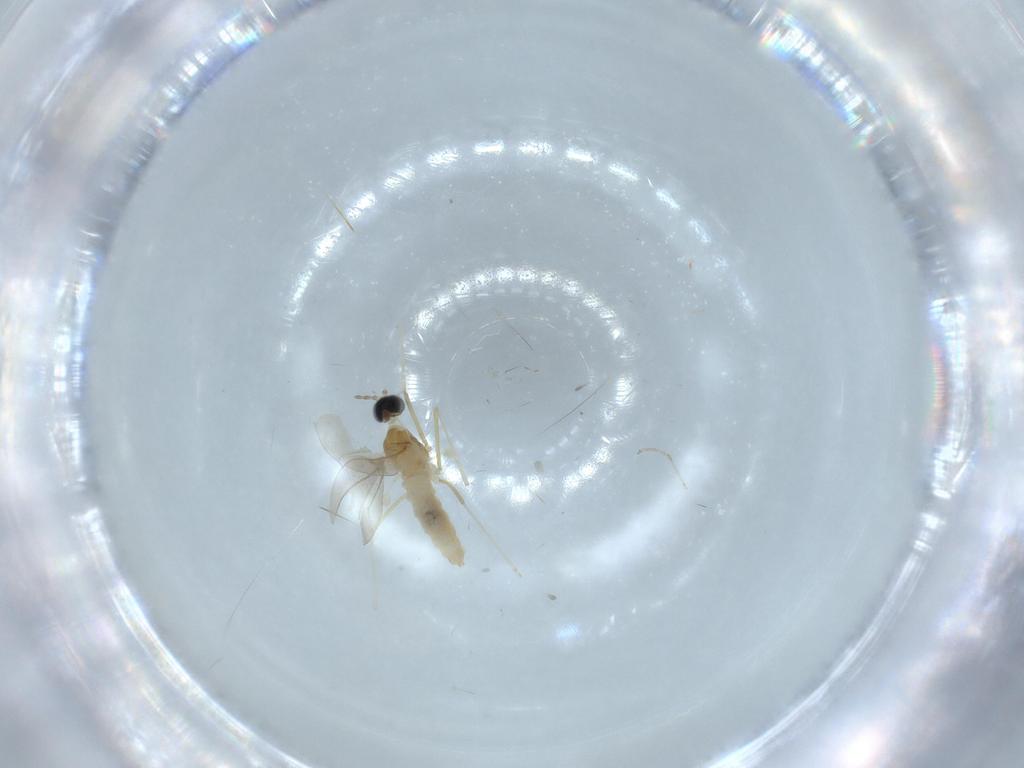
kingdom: Animalia
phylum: Arthropoda
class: Insecta
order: Diptera
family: Cecidomyiidae
